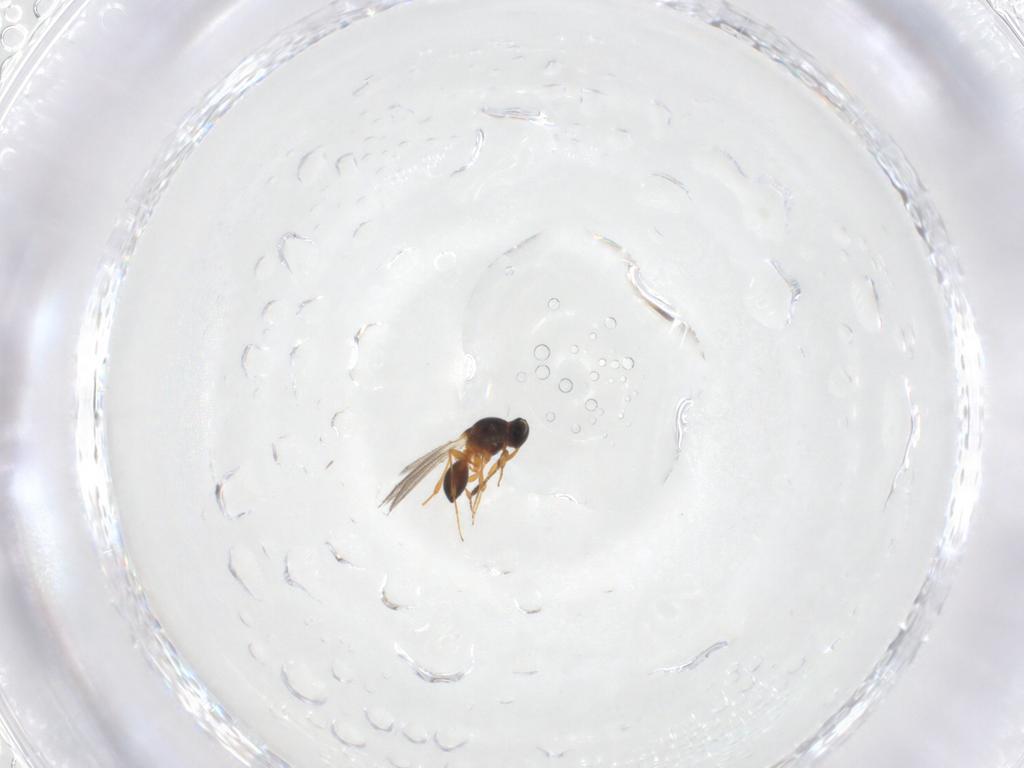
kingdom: Animalia
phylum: Arthropoda
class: Insecta
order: Hymenoptera
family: Platygastridae
